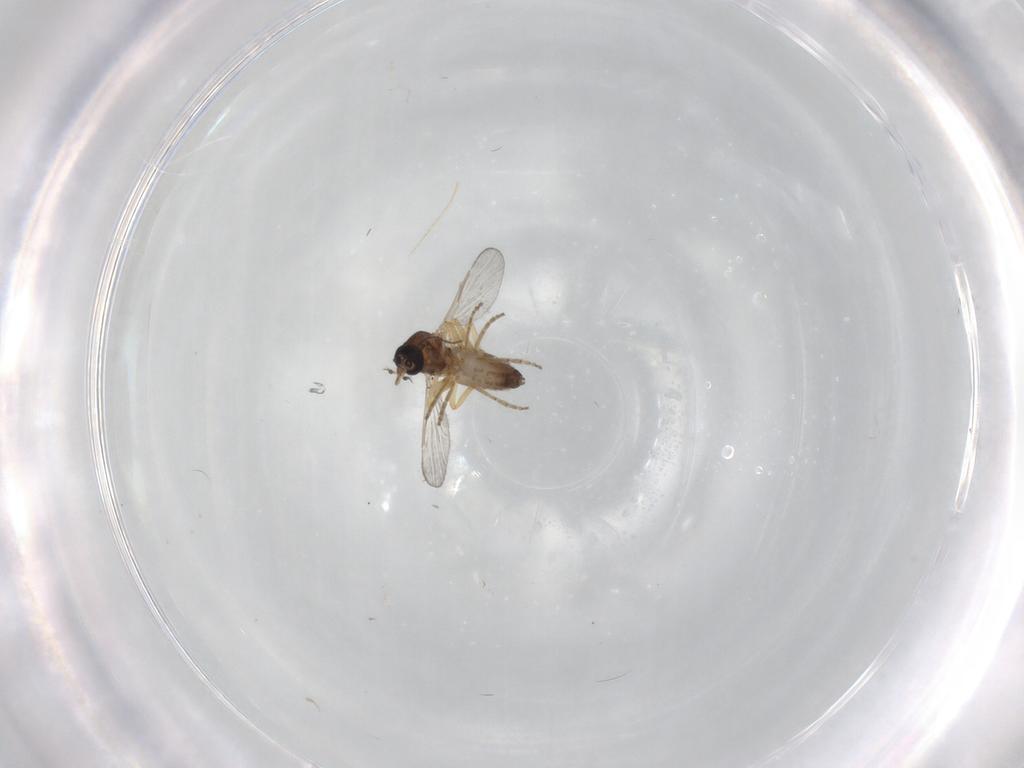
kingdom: Animalia
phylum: Arthropoda
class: Insecta
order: Diptera
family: Ceratopogonidae
